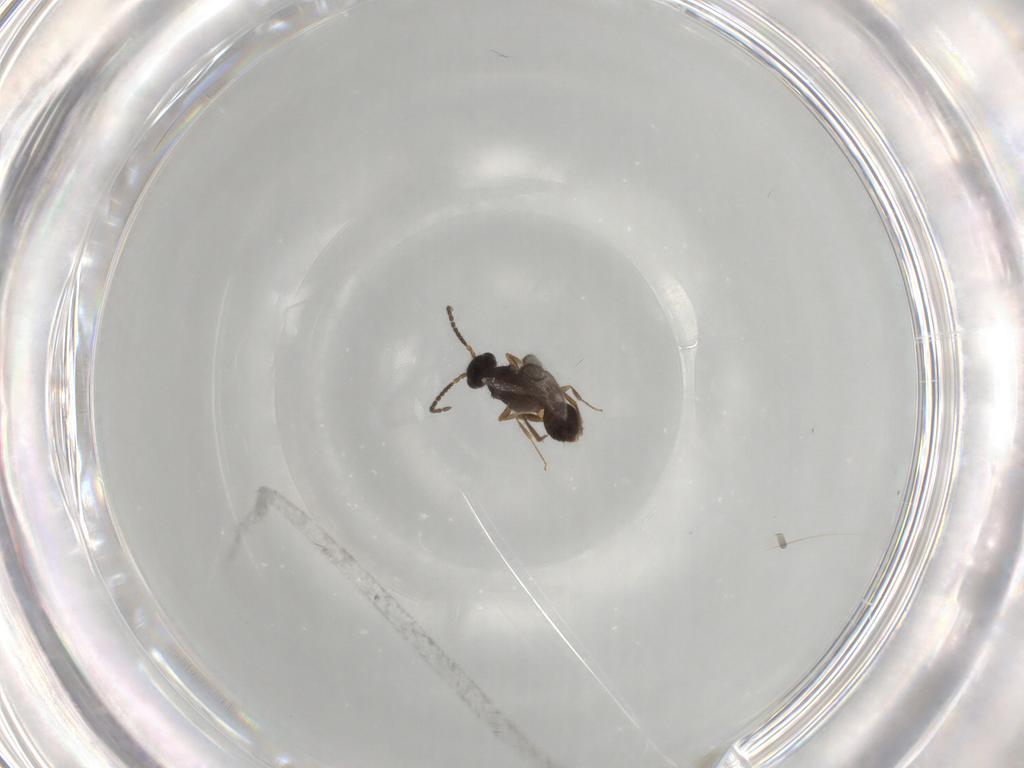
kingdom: Animalia
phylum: Arthropoda
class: Insecta
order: Hymenoptera
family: Bethylidae
